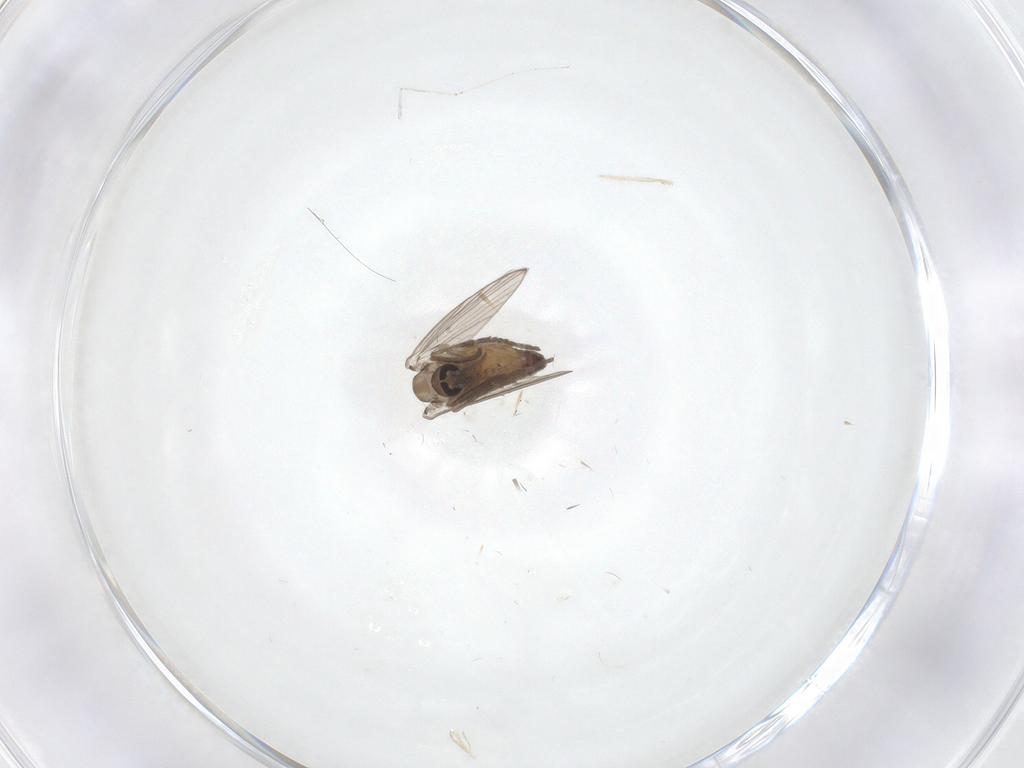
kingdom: Animalia
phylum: Arthropoda
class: Insecta
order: Diptera
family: Psychodidae
